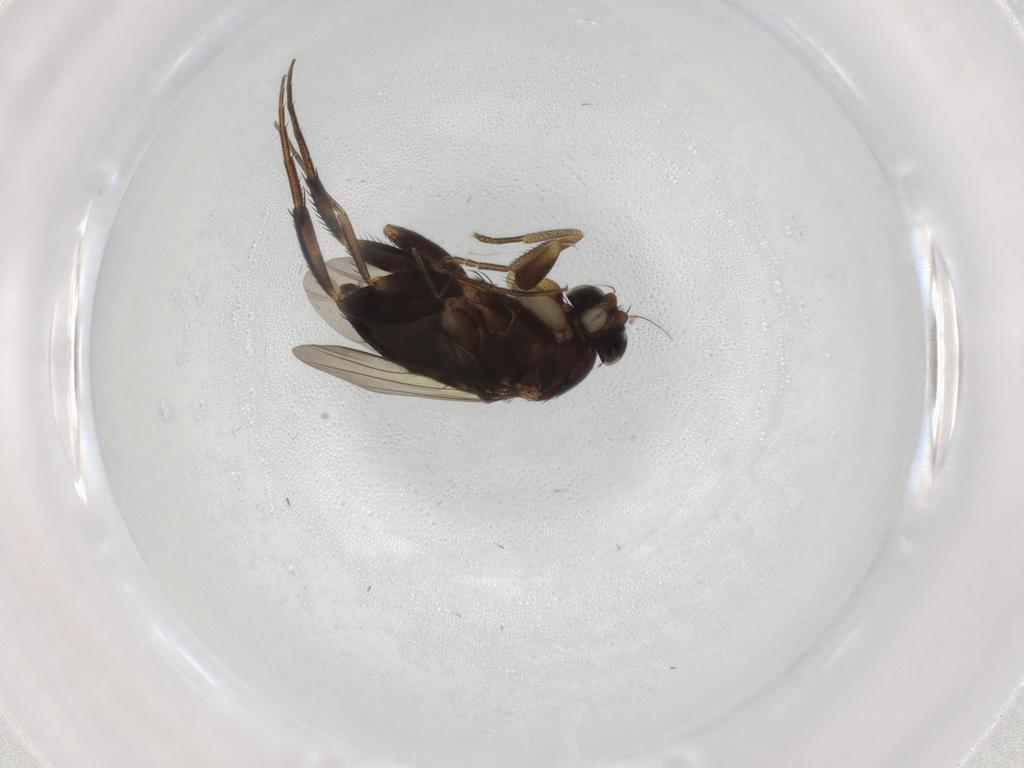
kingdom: Animalia
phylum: Arthropoda
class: Insecta
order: Diptera
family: Phoridae
